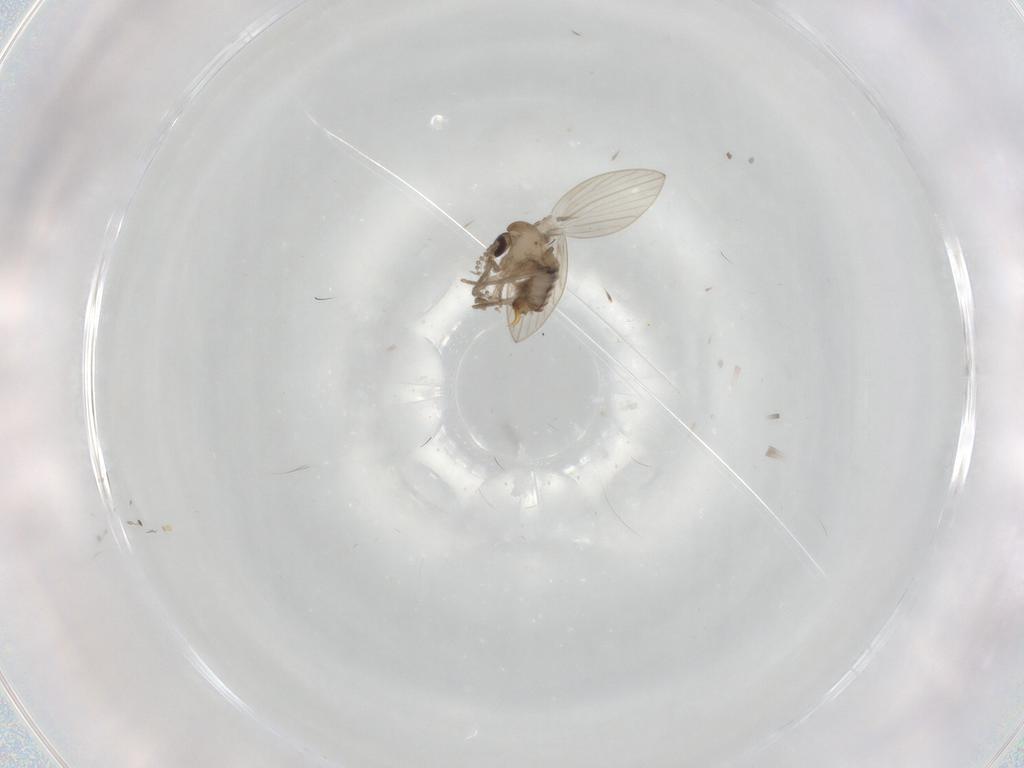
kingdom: Animalia
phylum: Arthropoda
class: Insecta
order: Diptera
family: Psychodidae
